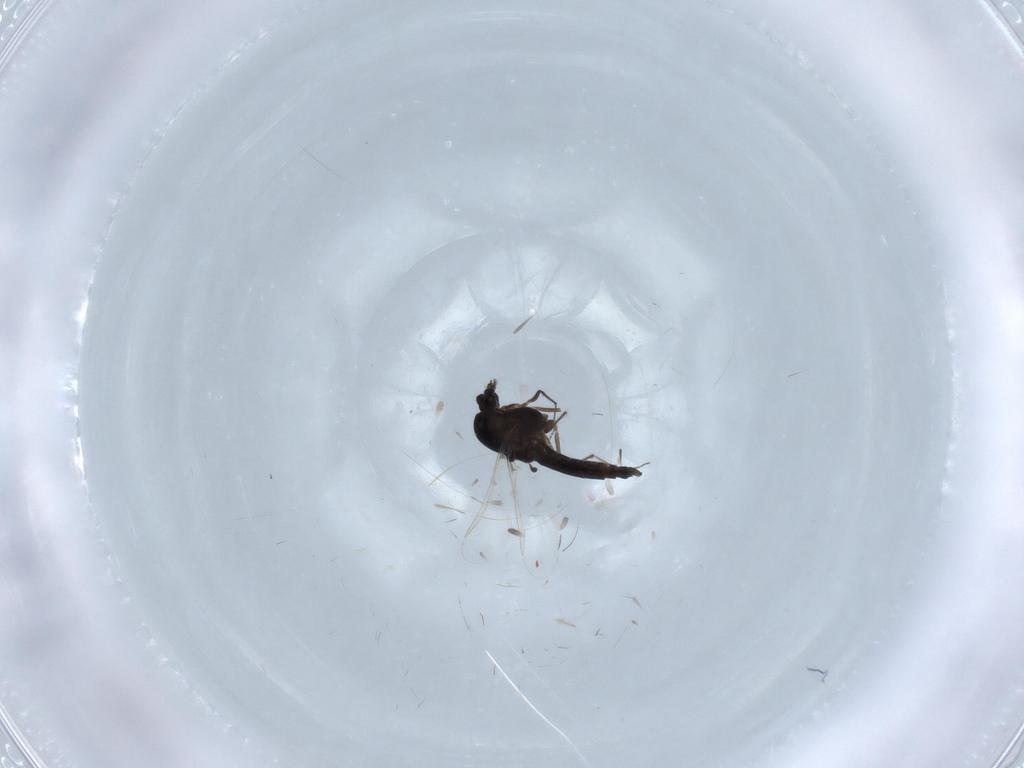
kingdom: Animalia
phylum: Arthropoda
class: Insecta
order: Diptera
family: Chironomidae
